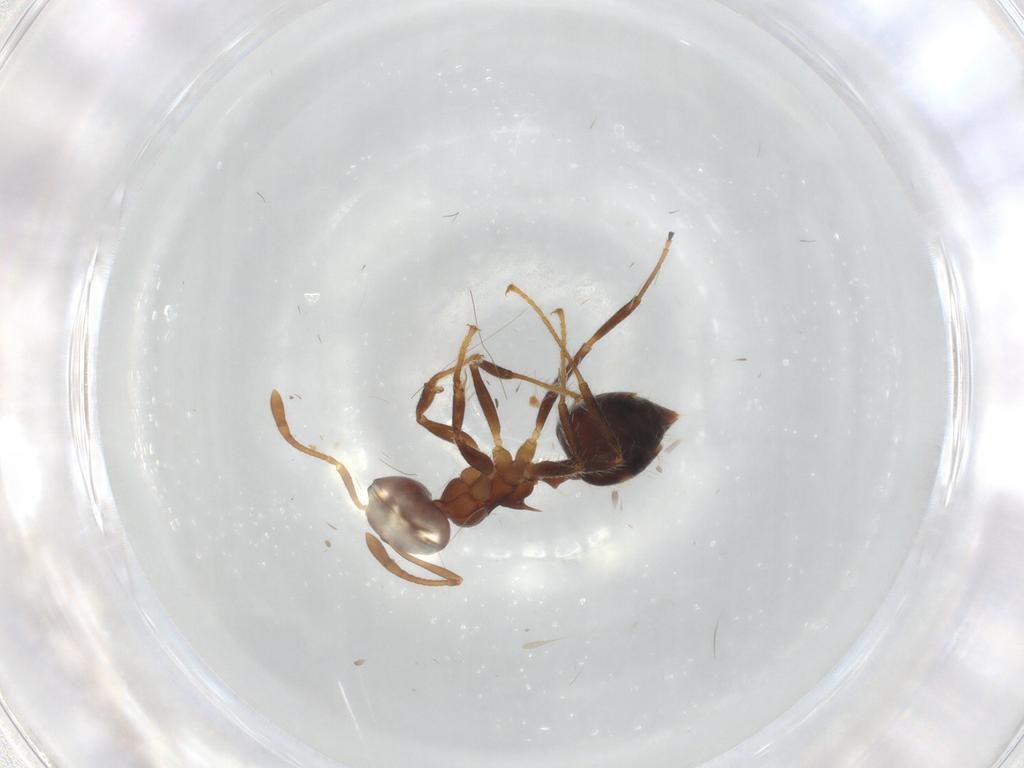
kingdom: Animalia
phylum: Arthropoda
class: Insecta
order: Hymenoptera
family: Formicidae
